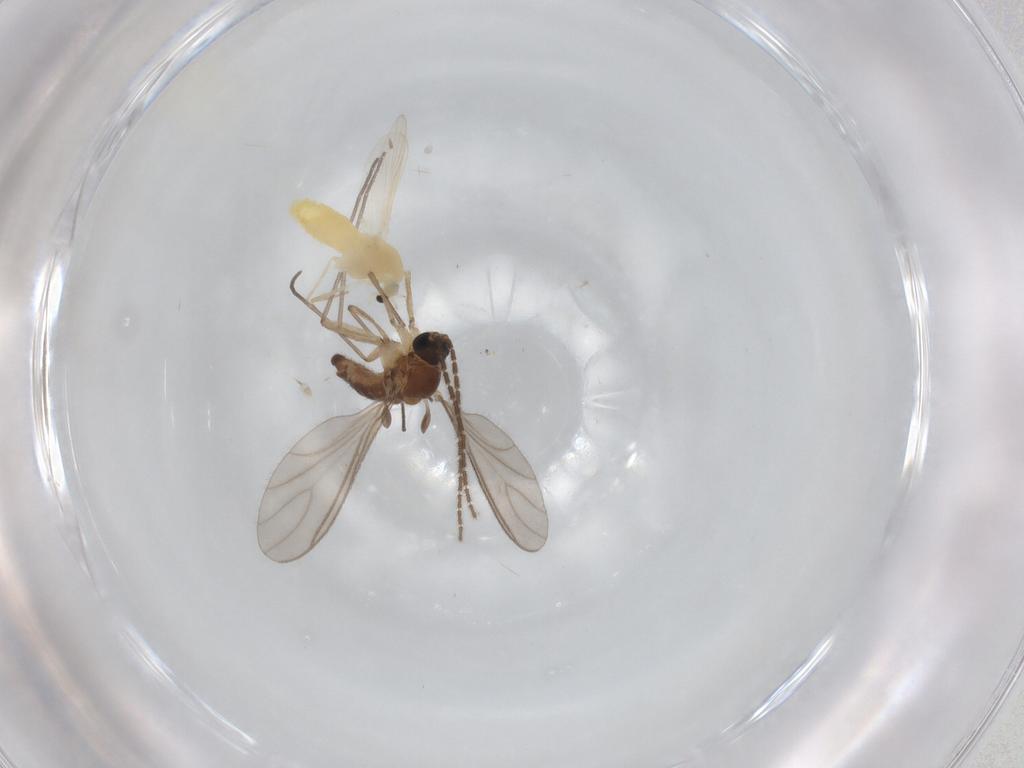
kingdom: Animalia
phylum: Arthropoda
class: Insecta
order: Diptera
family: Sciaridae
